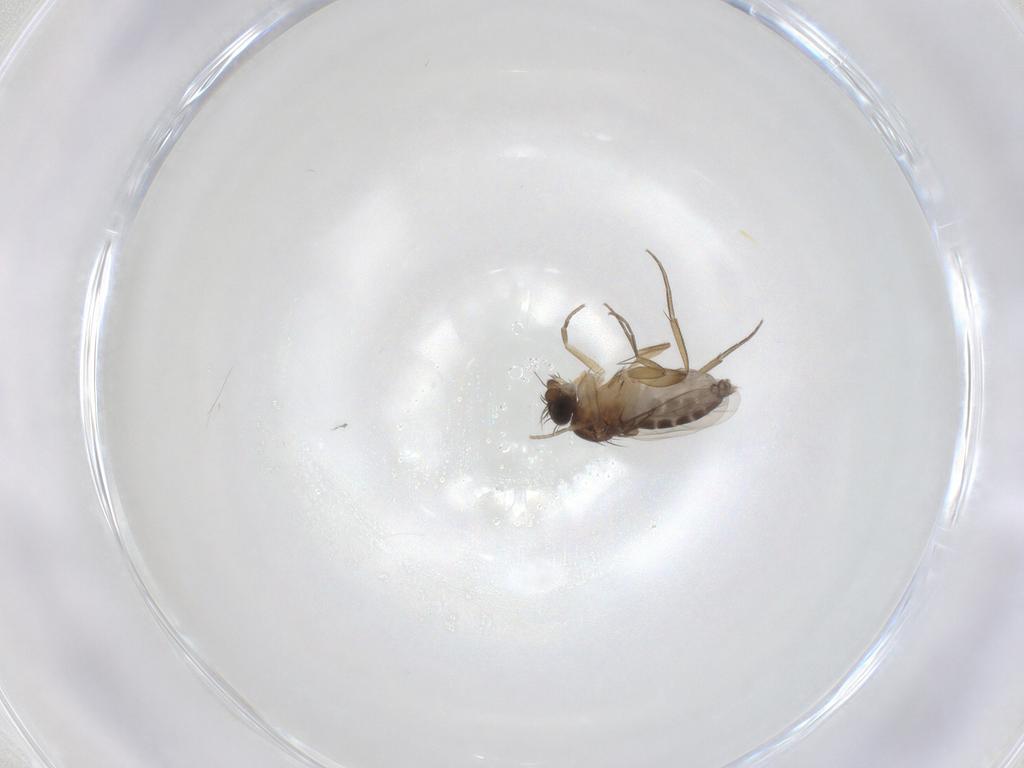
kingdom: Animalia
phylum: Arthropoda
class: Insecta
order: Diptera
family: Phoridae
